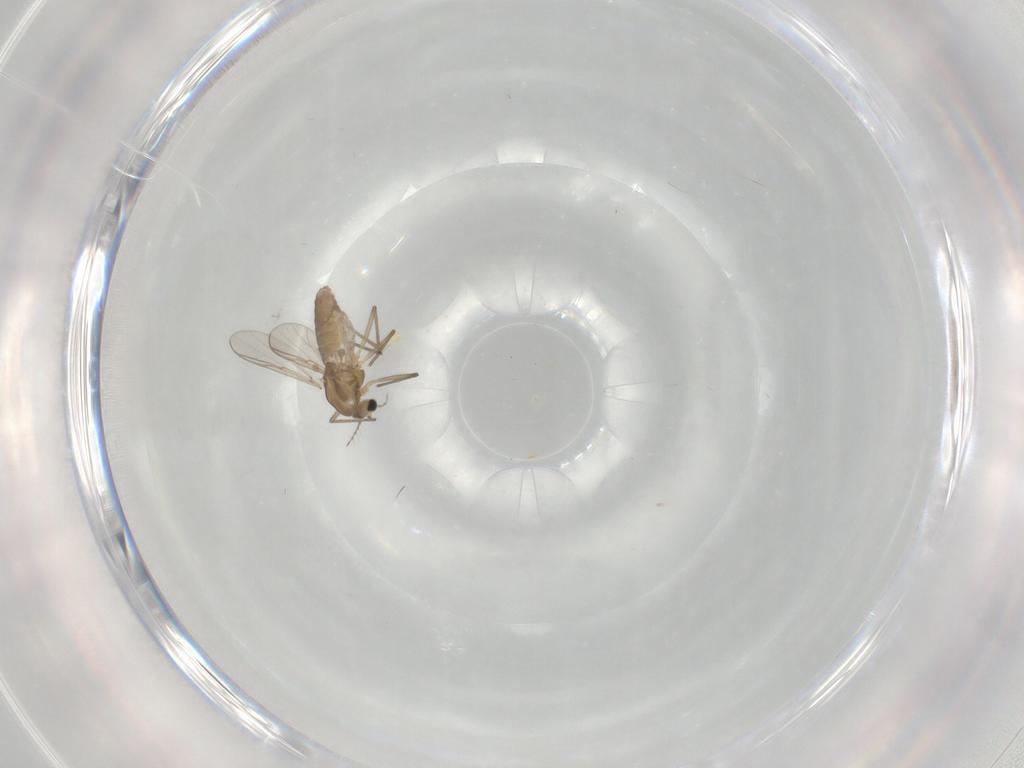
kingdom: Animalia
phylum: Arthropoda
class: Insecta
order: Diptera
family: Chironomidae
